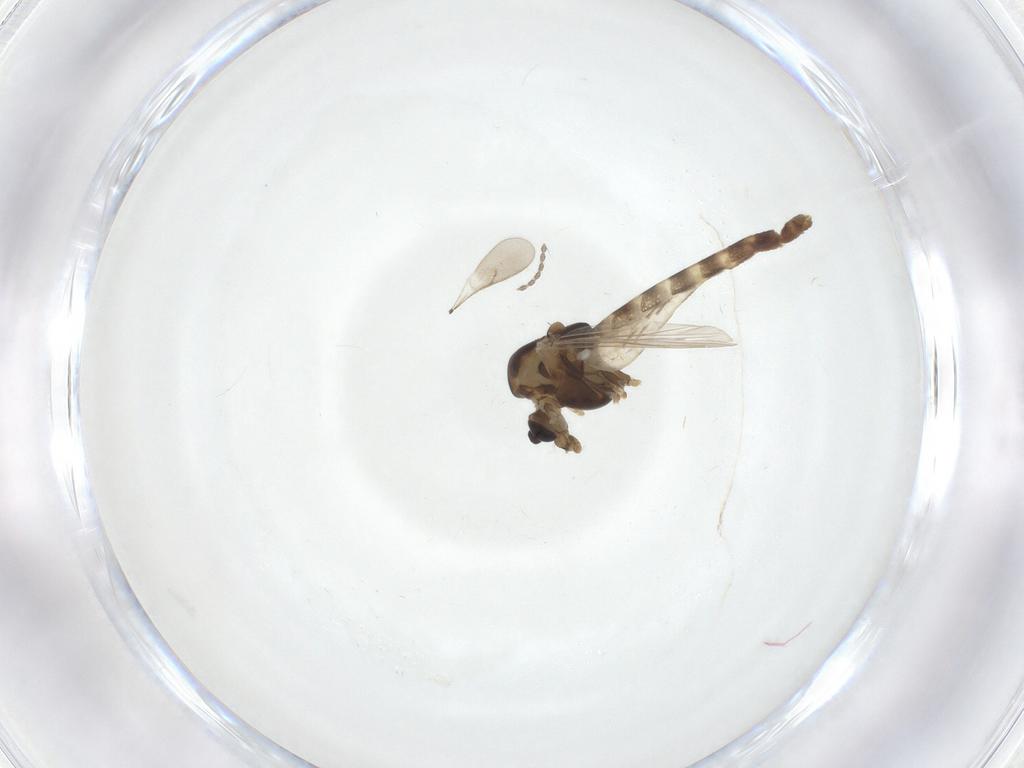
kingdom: Animalia
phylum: Arthropoda
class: Insecta
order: Diptera
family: Chironomidae
